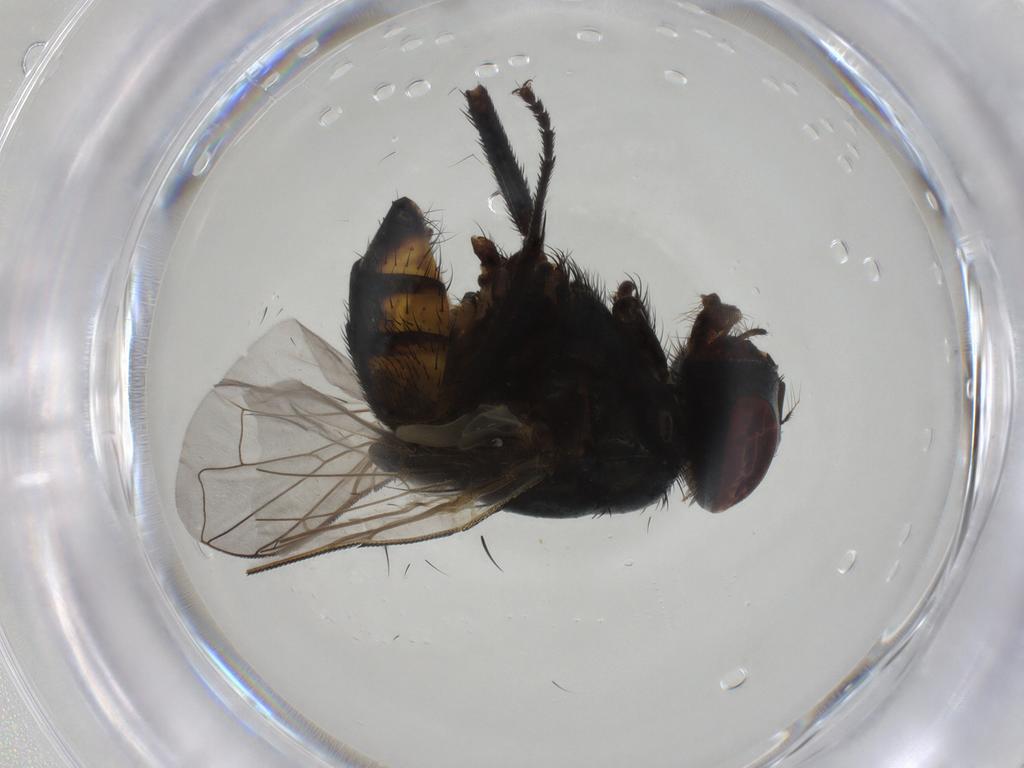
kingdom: Animalia
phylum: Arthropoda
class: Insecta
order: Diptera
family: Muscidae
